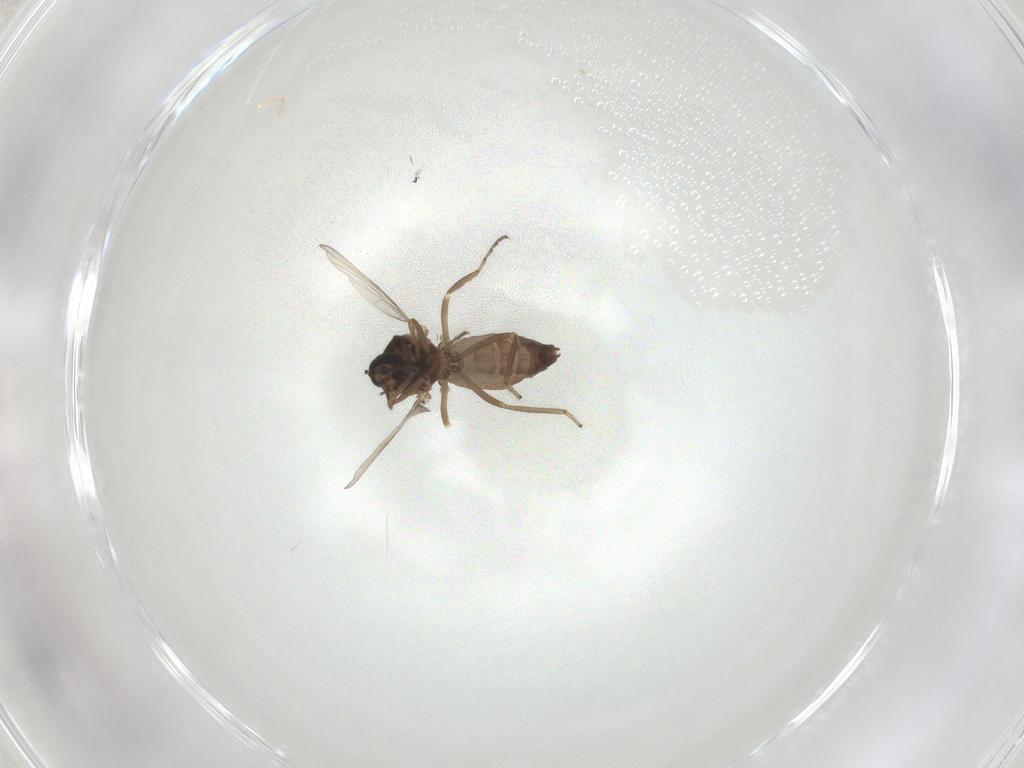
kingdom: Animalia
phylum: Arthropoda
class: Insecta
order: Diptera
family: Ceratopogonidae
